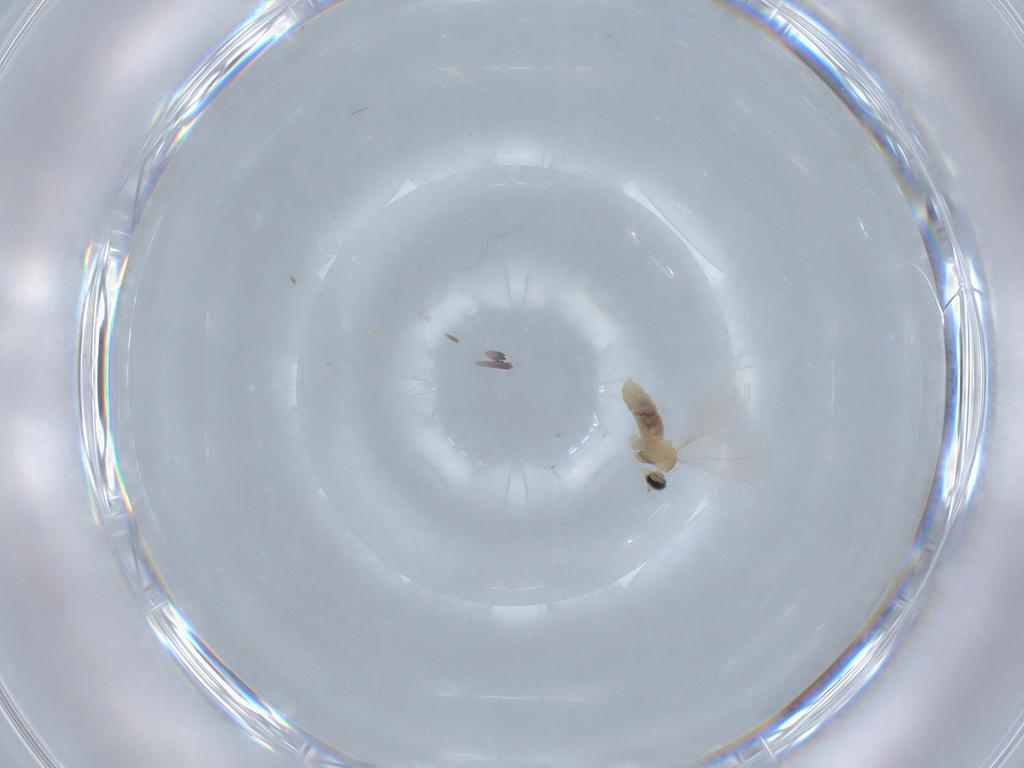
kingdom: Animalia
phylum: Arthropoda
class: Insecta
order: Diptera
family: Cecidomyiidae
